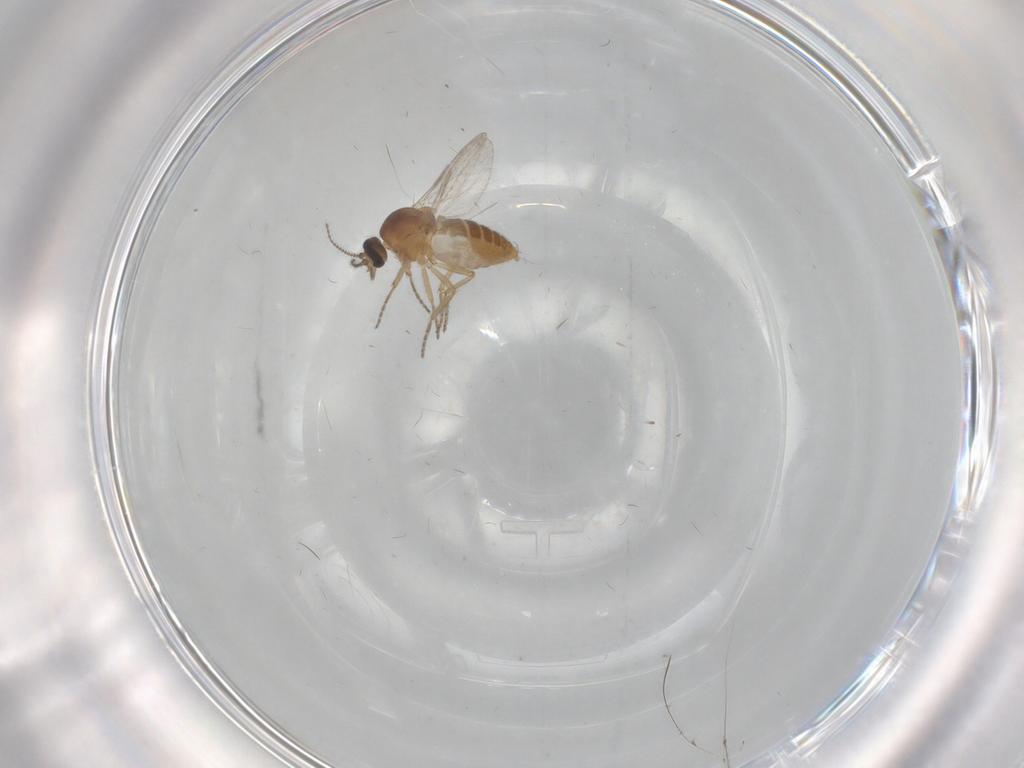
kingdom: Animalia
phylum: Arthropoda
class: Insecta
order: Diptera
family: Ceratopogonidae
